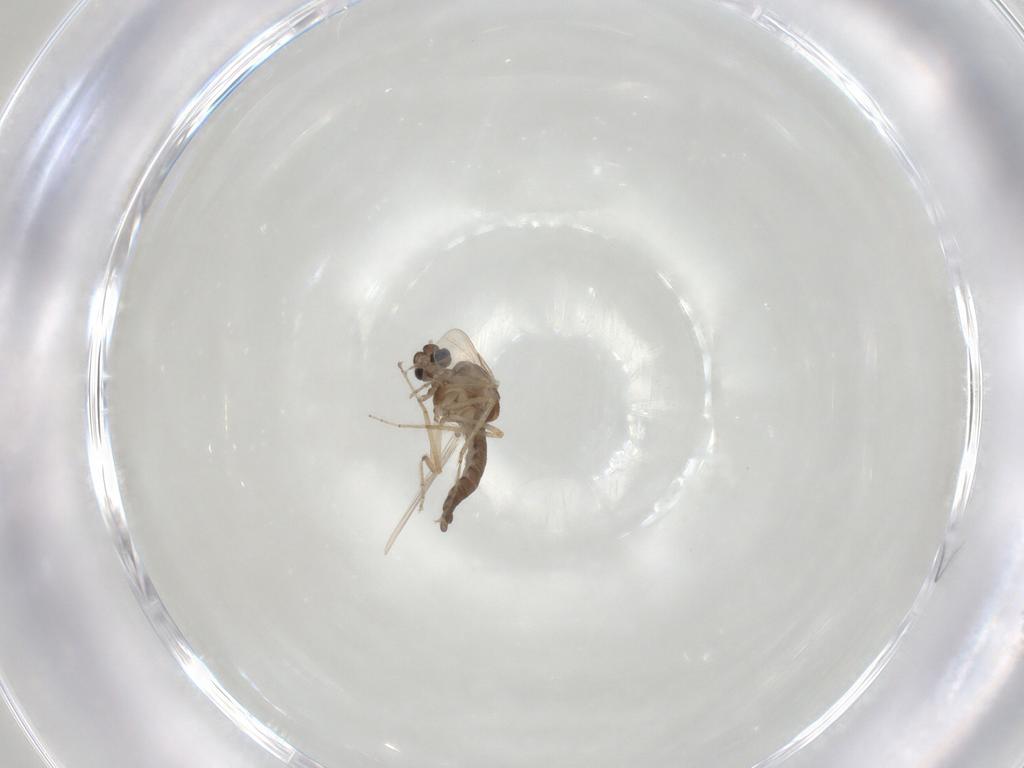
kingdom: Animalia
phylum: Arthropoda
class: Insecta
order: Diptera
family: Ceratopogonidae
